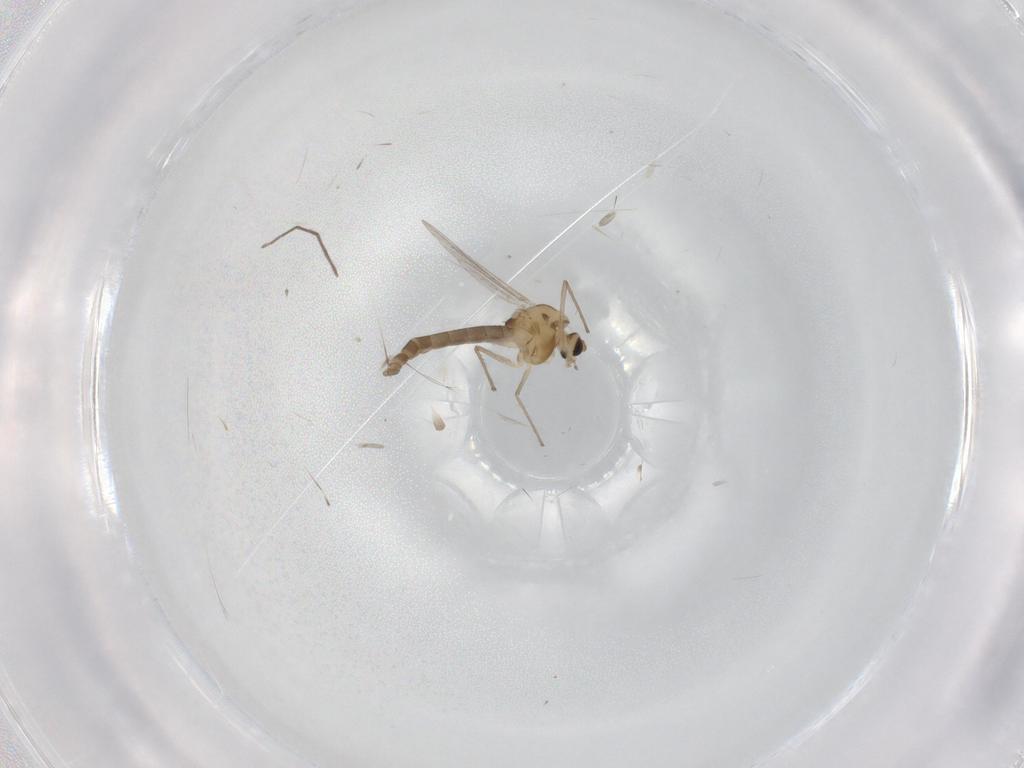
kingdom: Animalia
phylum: Arthropoda
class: Insecta
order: Diptera
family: Chironomidae
